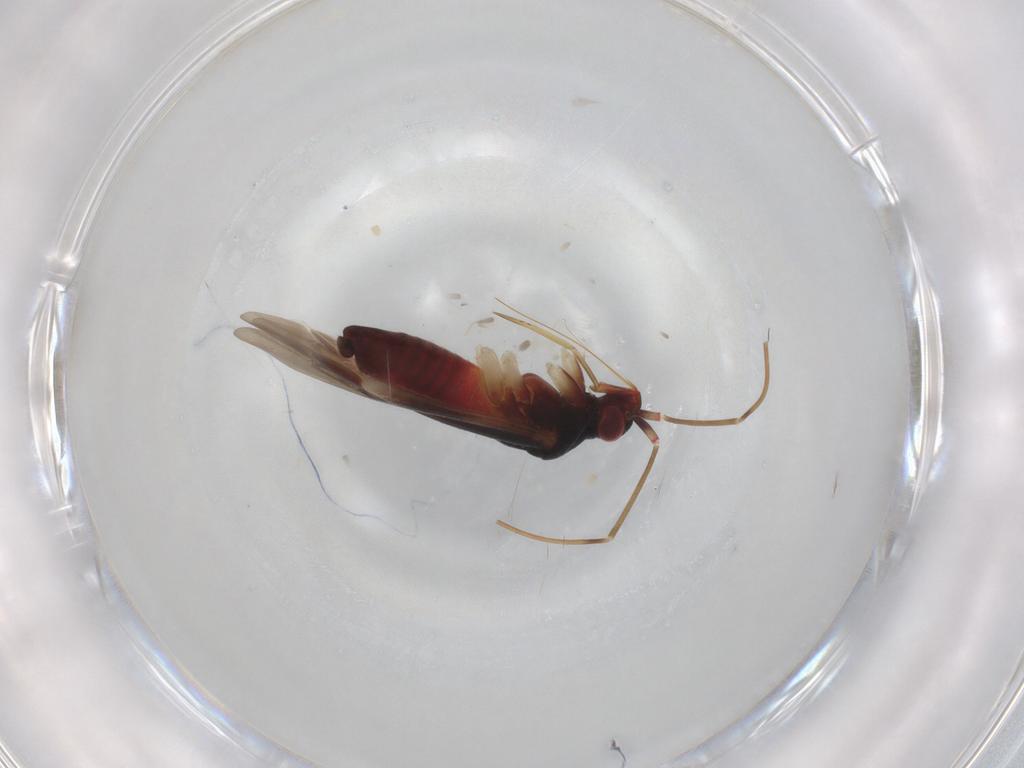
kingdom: Animalia
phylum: Arthropoda
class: Insecta
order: Hemiptera
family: Miridae
